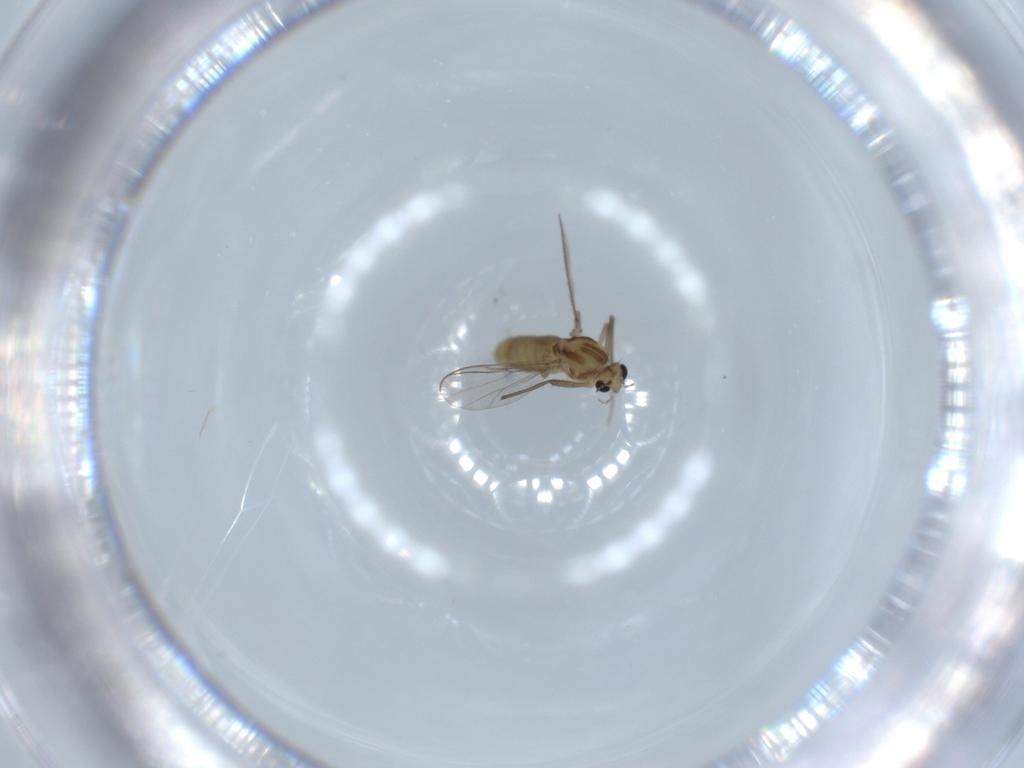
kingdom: Animalia
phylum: Arthropoda
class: Insecta
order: Diptera
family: Chironomidae
